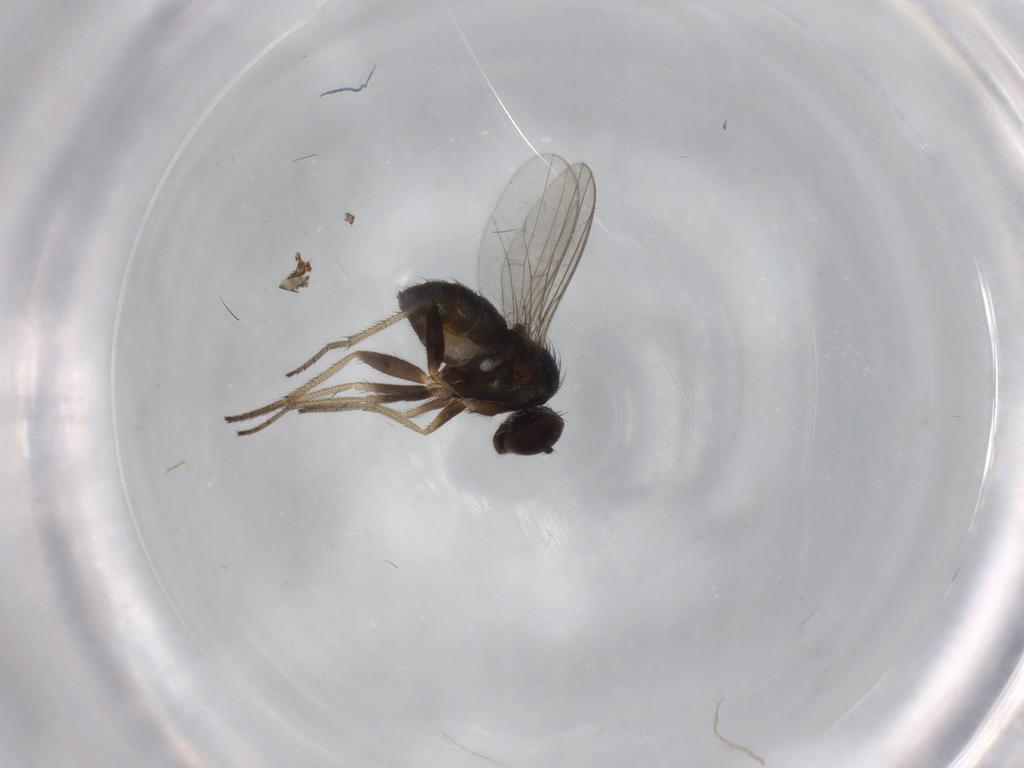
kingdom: Animalia
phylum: Arthropoda
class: Insecta
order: Diptera
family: Dolichopodidae
